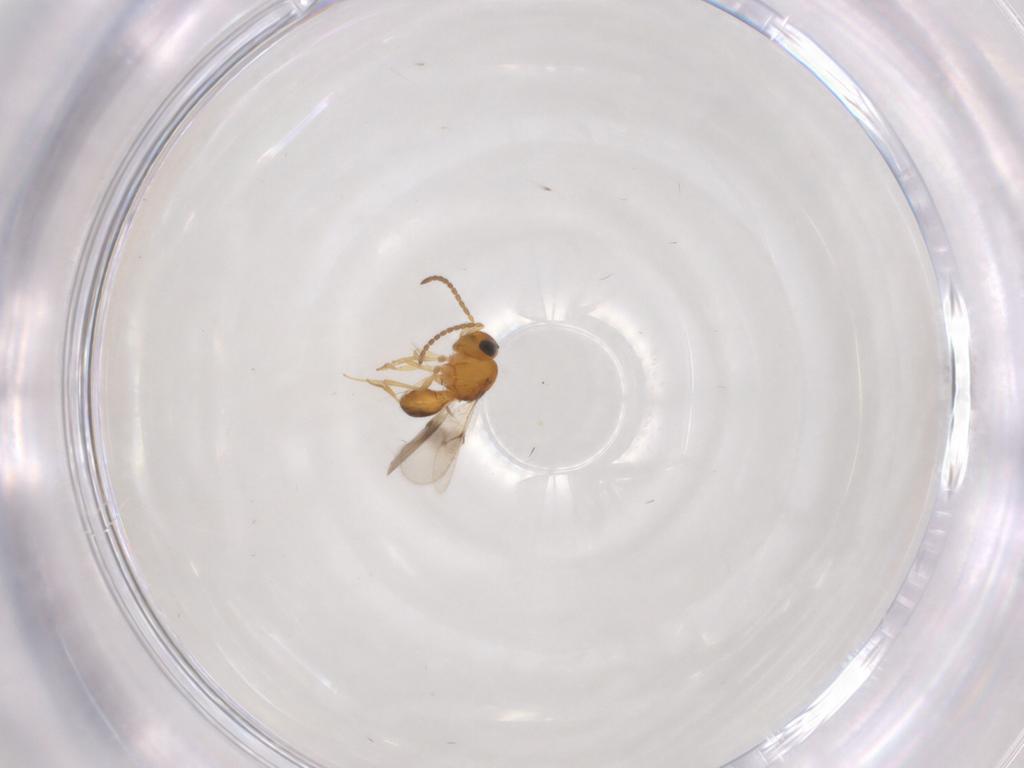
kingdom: Animalia
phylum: Arthropoda
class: Insecta
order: Hymenoptera
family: Scelionidae
